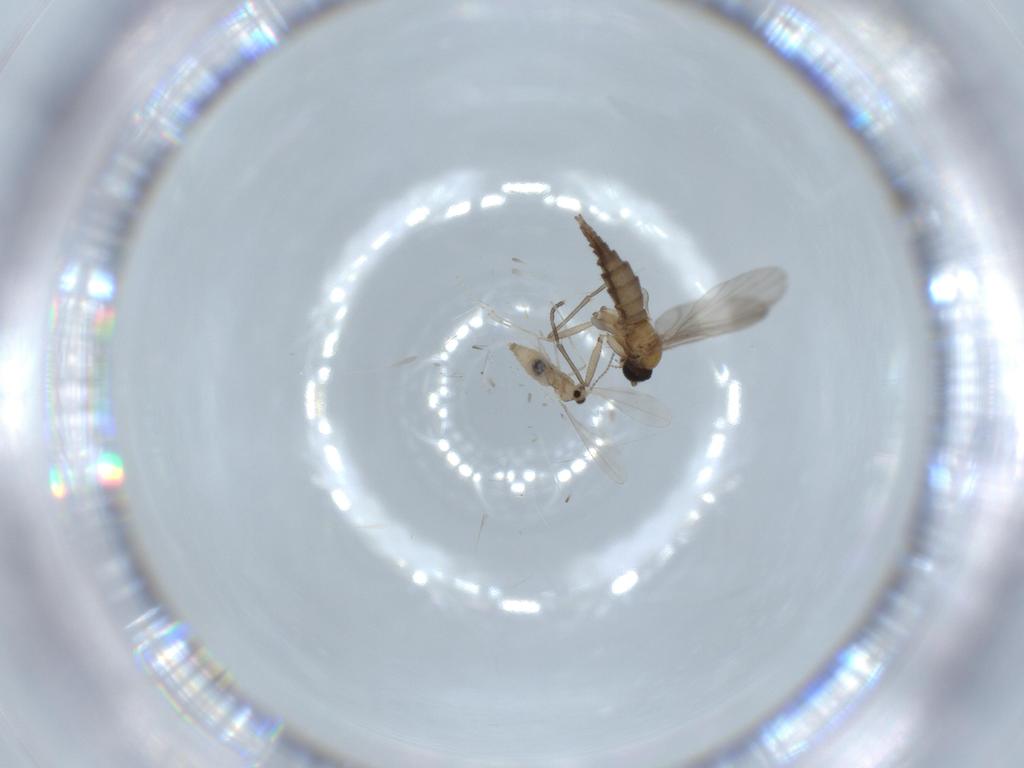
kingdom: Animalia
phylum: Arthropoda
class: Insecta
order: Diptera
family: Sciaridae
